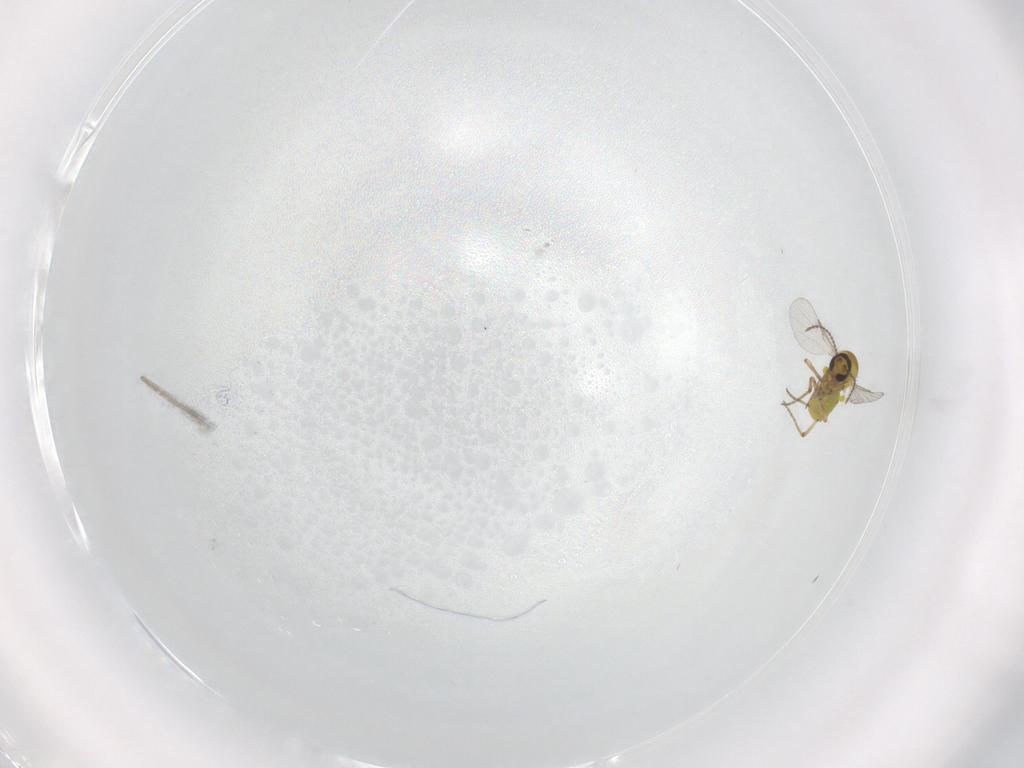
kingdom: Animalia
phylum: Arthropoda
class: Insecta
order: Diptera
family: Ceratopogonidae
